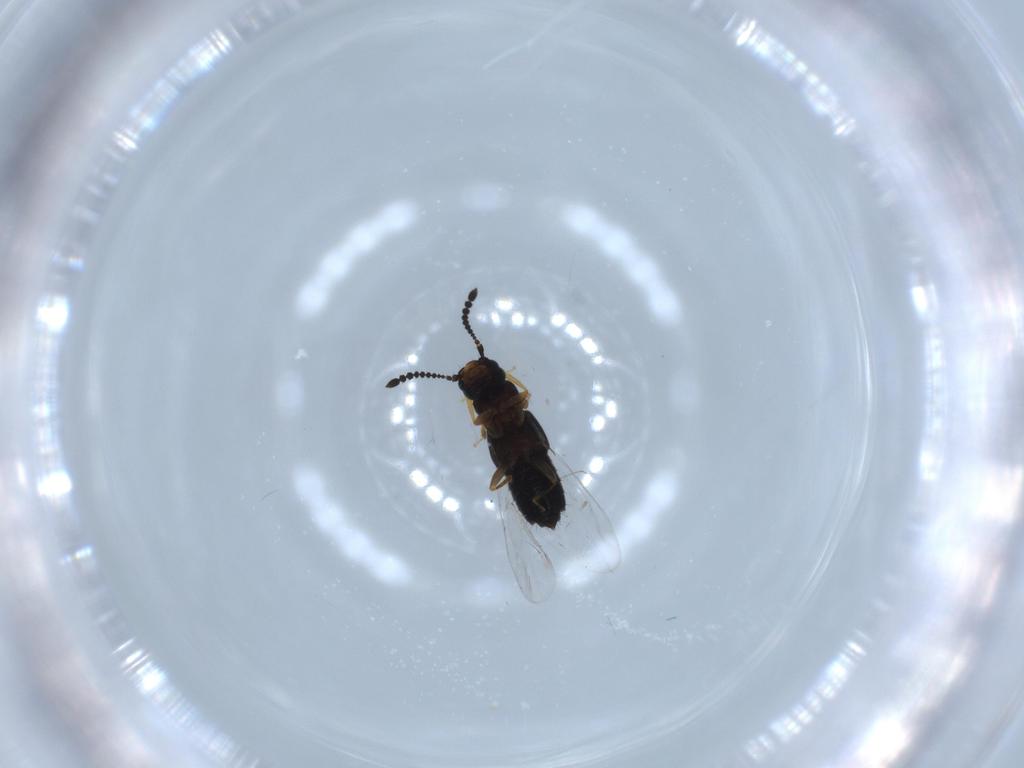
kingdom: Animalia
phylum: Arthropoda
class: Insecta
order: Coleoptera
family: Staphylinidae
